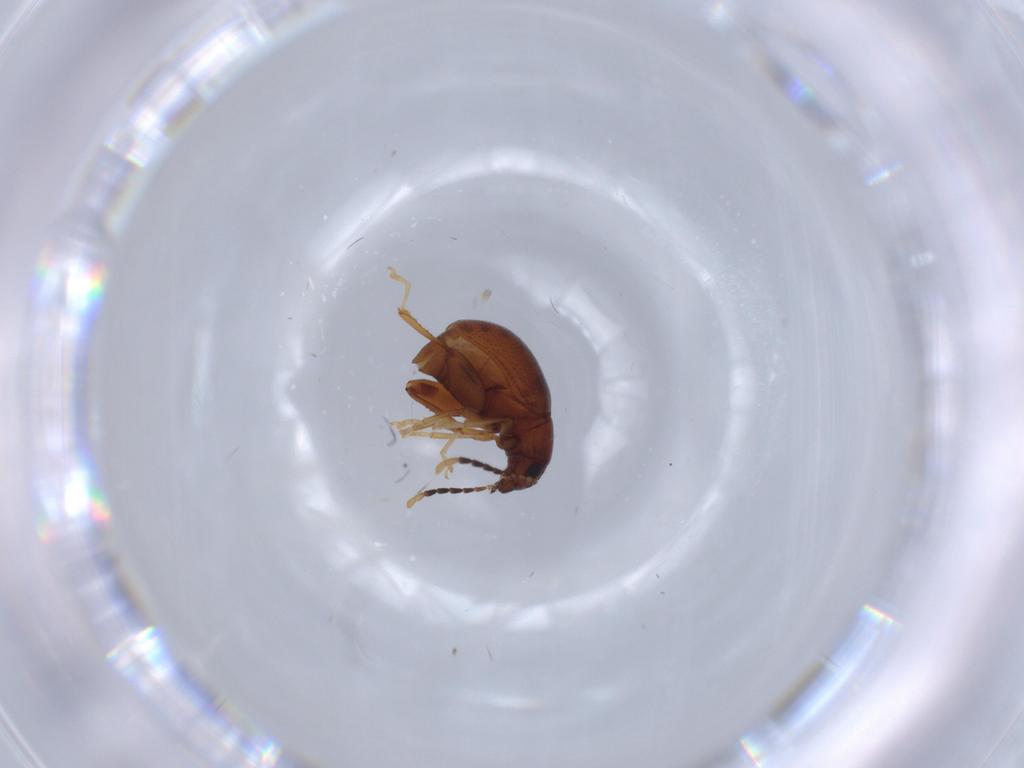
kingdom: Animalia
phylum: Arthropoda
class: Insecta
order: Coleoptera
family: Chrysomelidae
